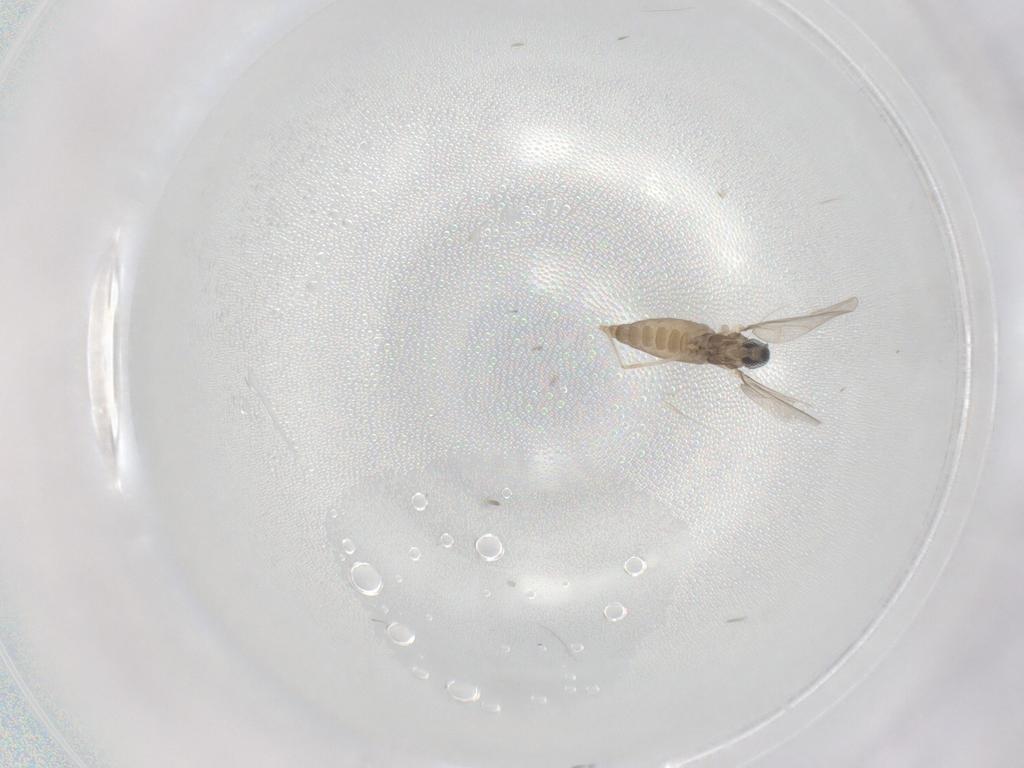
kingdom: Animalia
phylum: Arthropoda
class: Insecta
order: Diptera
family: Cecidomyiidae
